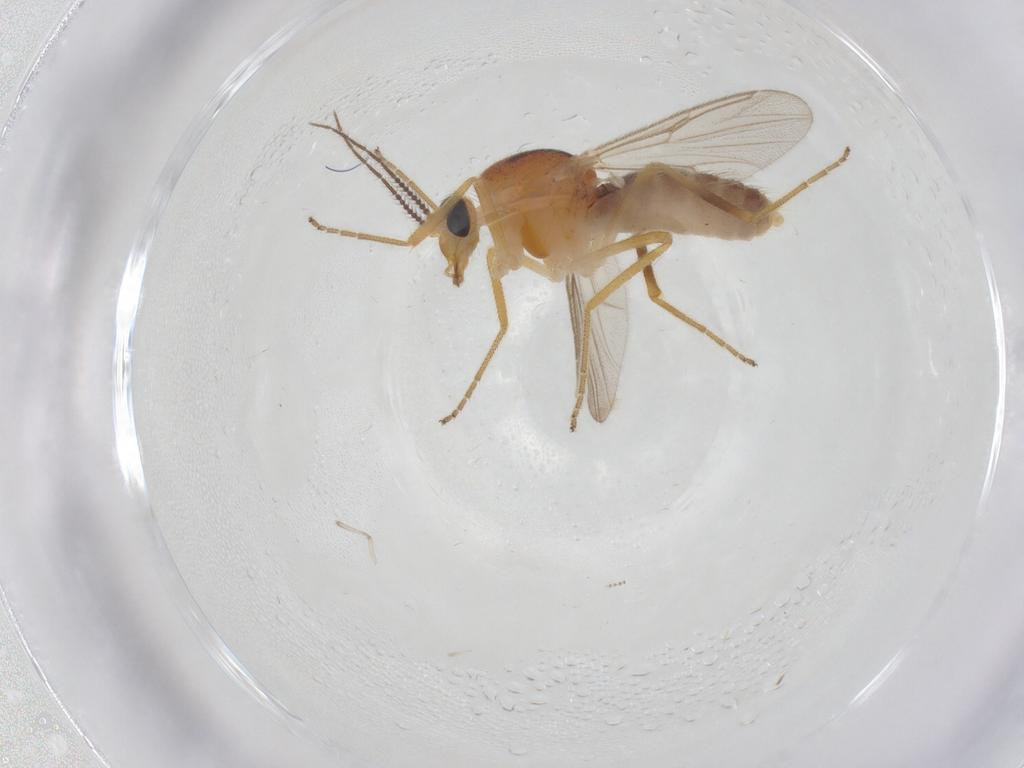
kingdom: Animalia
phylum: Arthropoda
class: Insecta
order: Diptera
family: Ceratopogonidae
